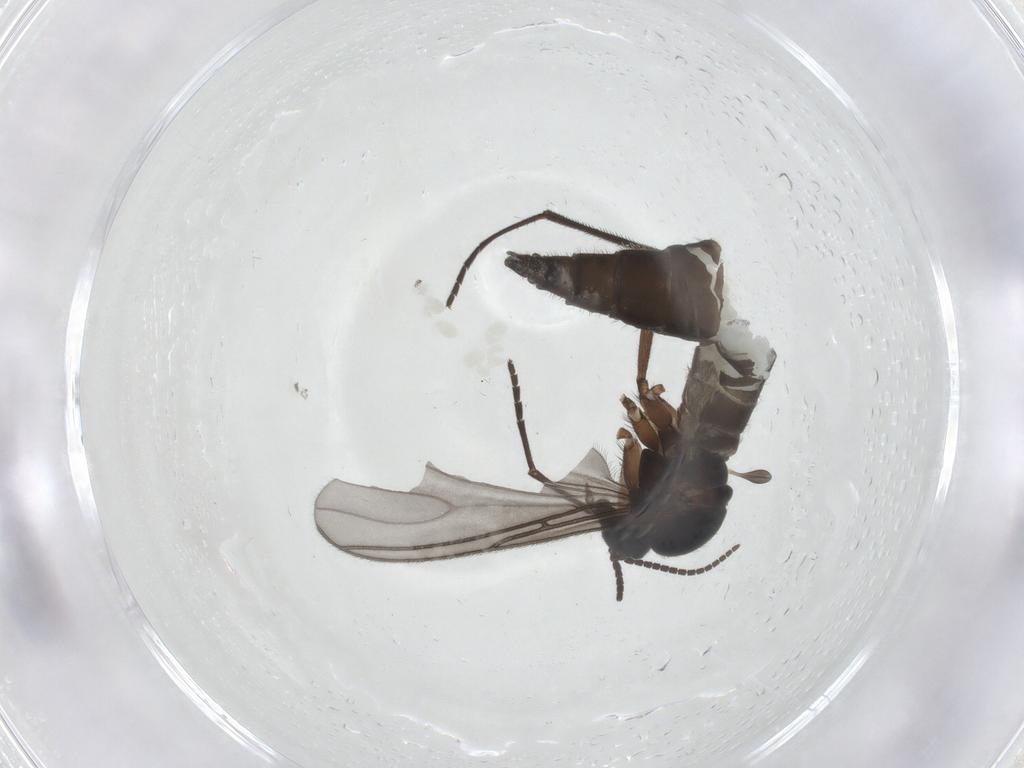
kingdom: Animalia
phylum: Arthropoda
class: Insecta
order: Diptera
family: Sciaridae
